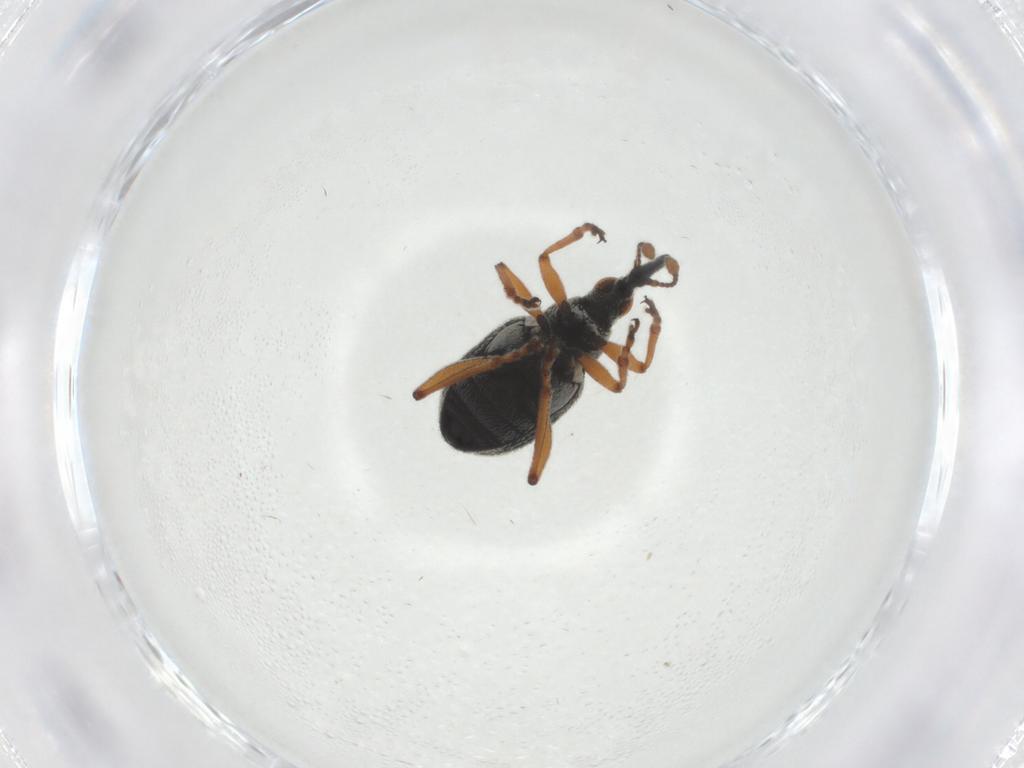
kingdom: Animalia
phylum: Arthropoda
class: Insecta
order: Coleoptera
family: Brentidae
